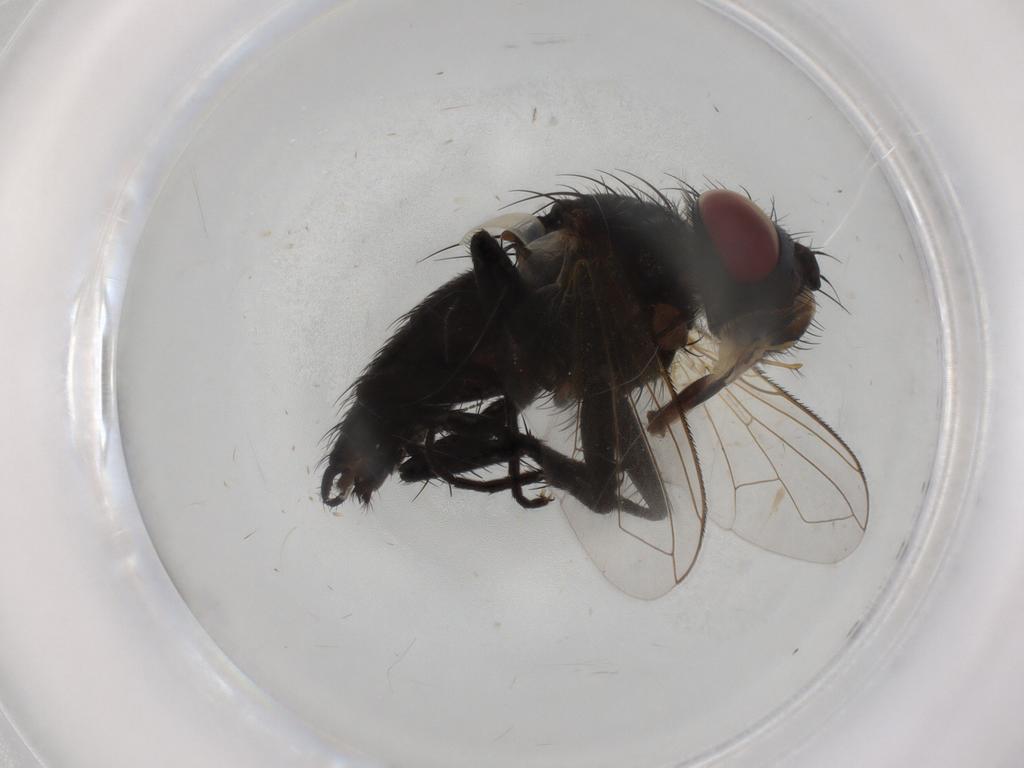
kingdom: Animalia
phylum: Arthropoda
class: Insecta
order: Diptera
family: Tachinidae
